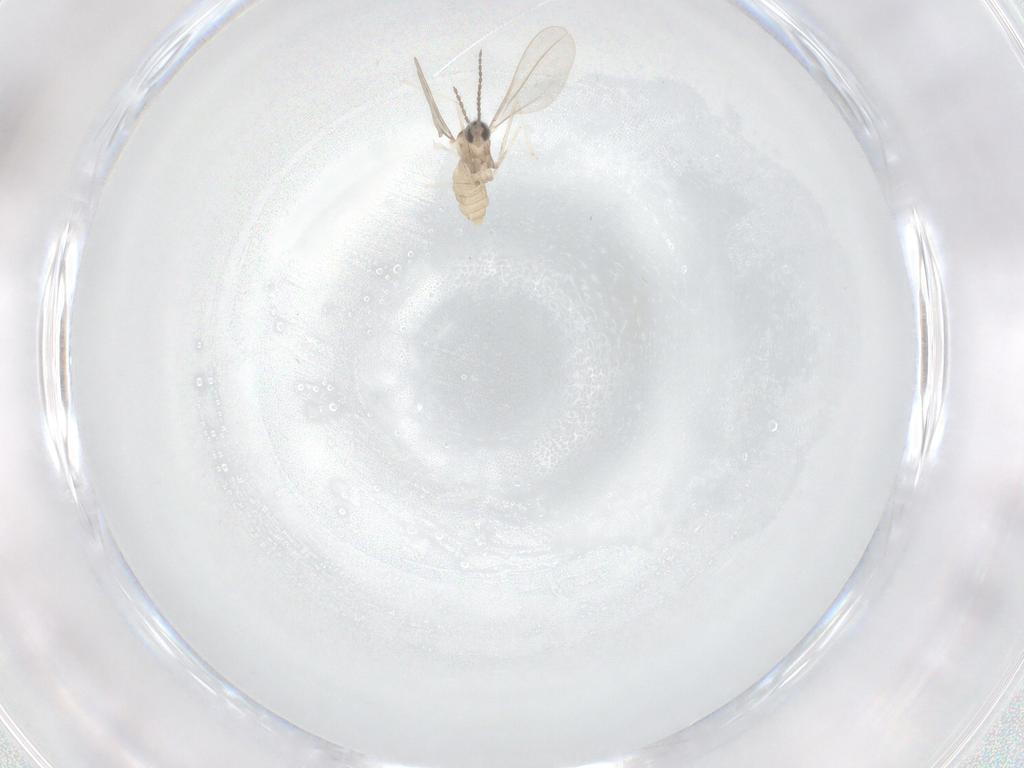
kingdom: Animalia
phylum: Arthropoda
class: Insecta
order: Diptera
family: Cecidomyiidae
